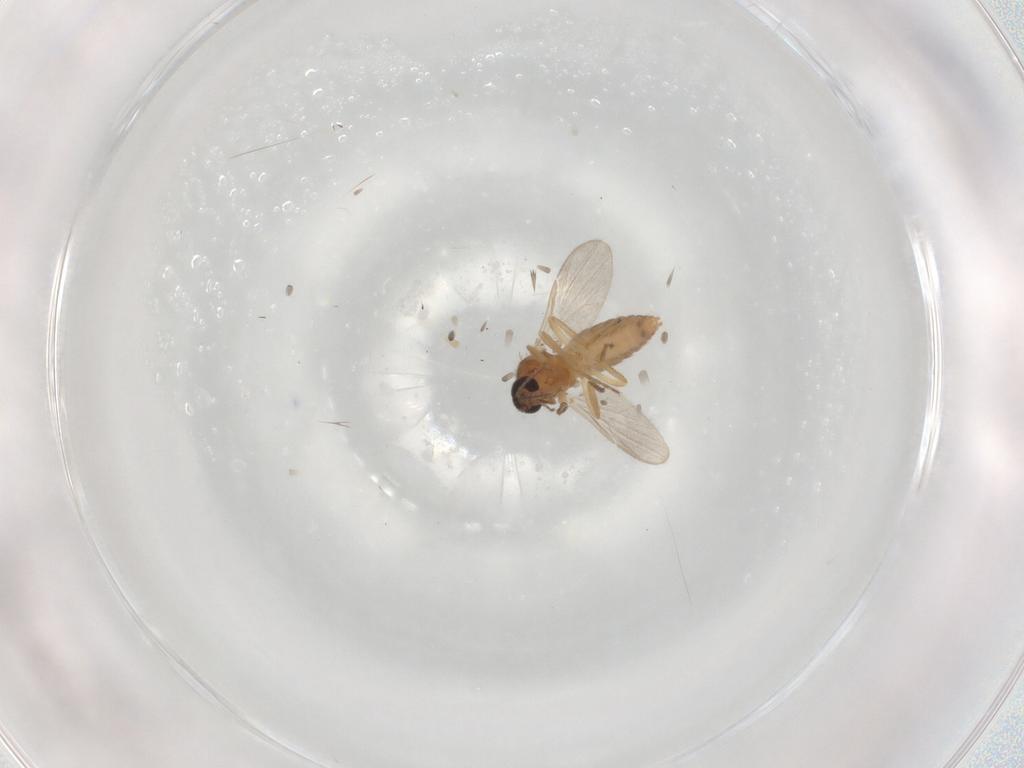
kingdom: Animalia
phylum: Arthropoda
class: Insecta
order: Diptera
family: Ceratopogonidae
